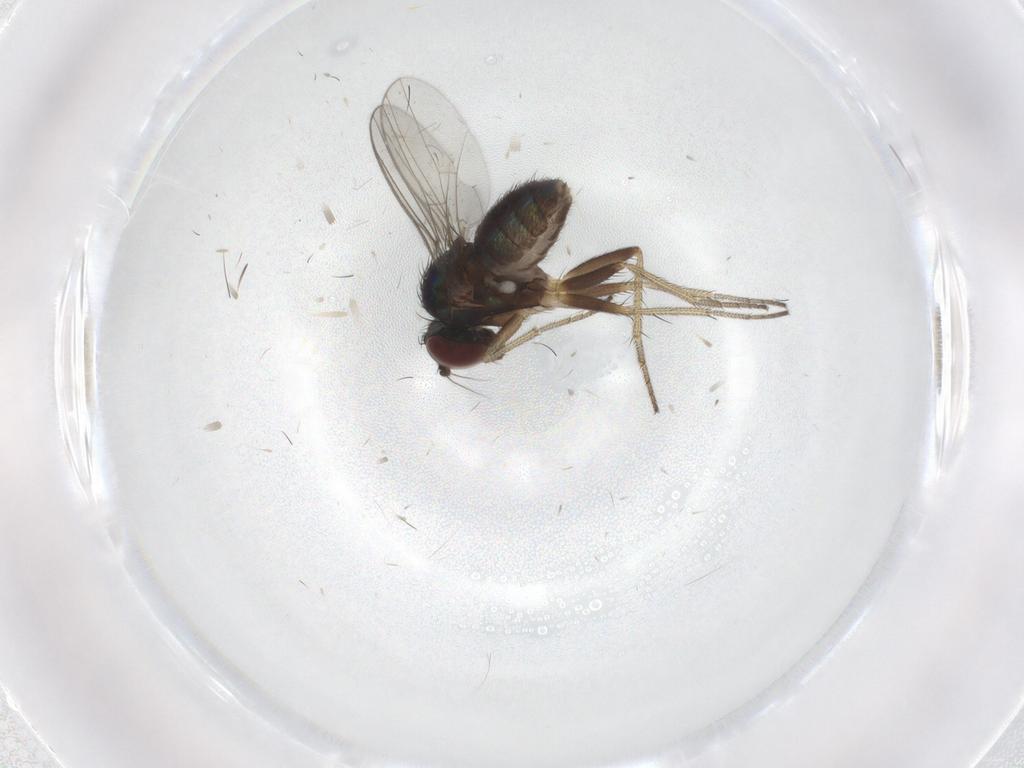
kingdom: Animalia
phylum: Arthropoda
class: Insecta
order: Diptera
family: Dolichopodidae
